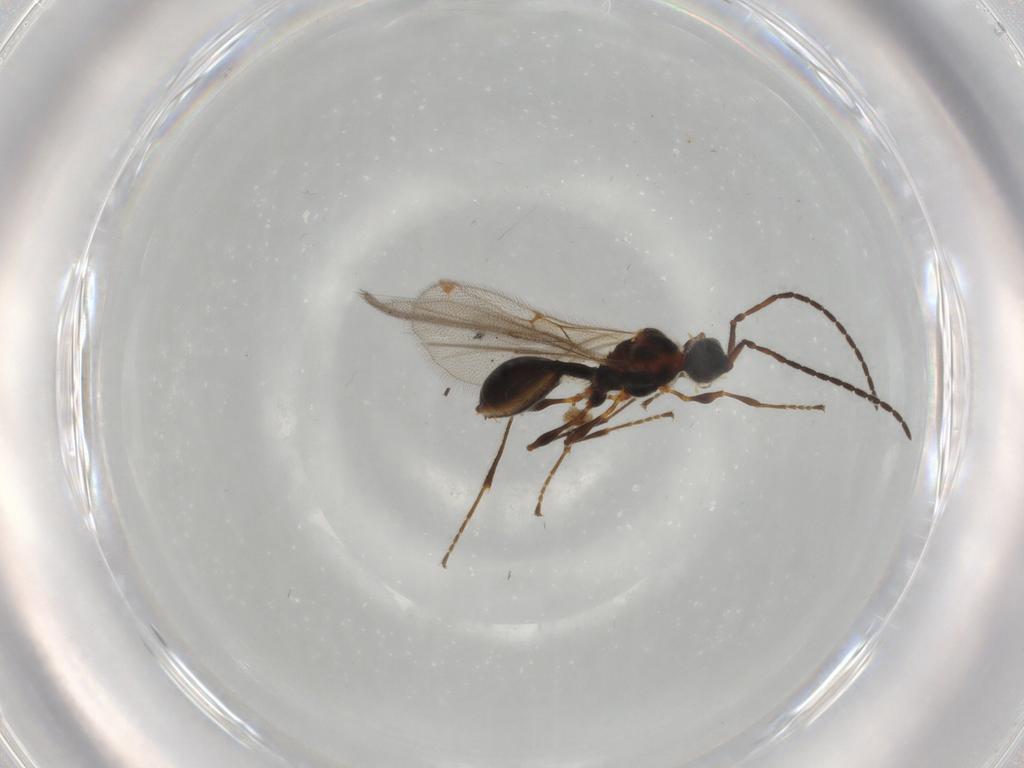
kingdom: Animalia
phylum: Arthropoda
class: Insecta
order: Hymenoptera
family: Diapriidae
